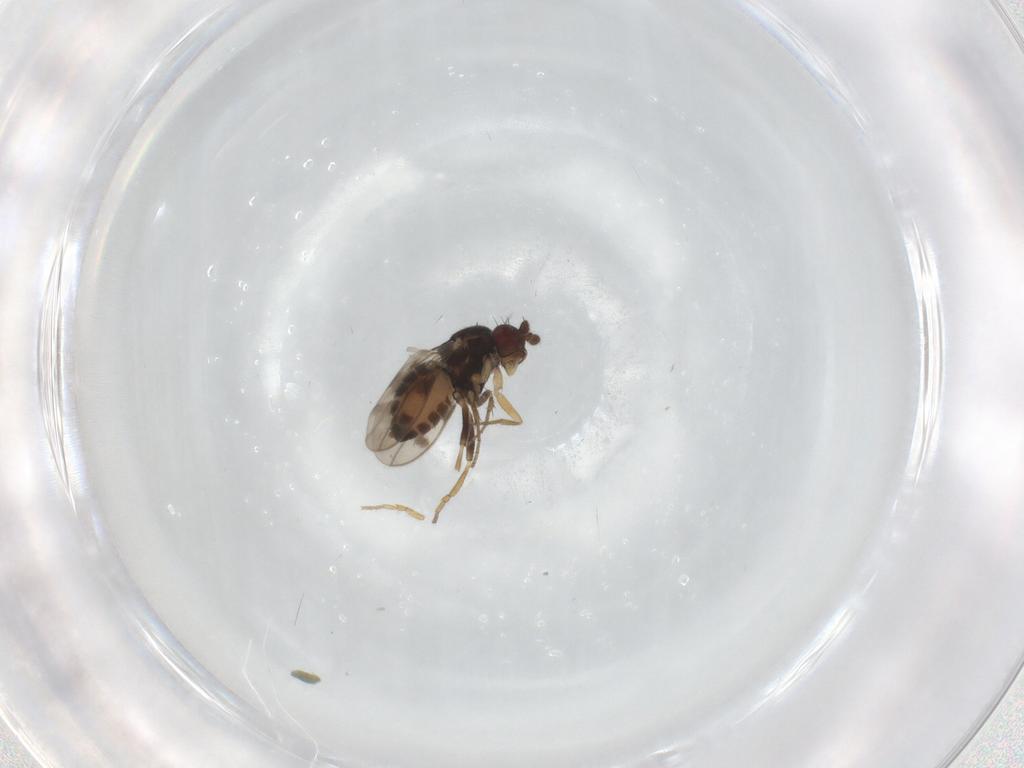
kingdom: Animalia
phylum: Arthropoda
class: Insecta
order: Diptera
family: Sphaeroceridae
